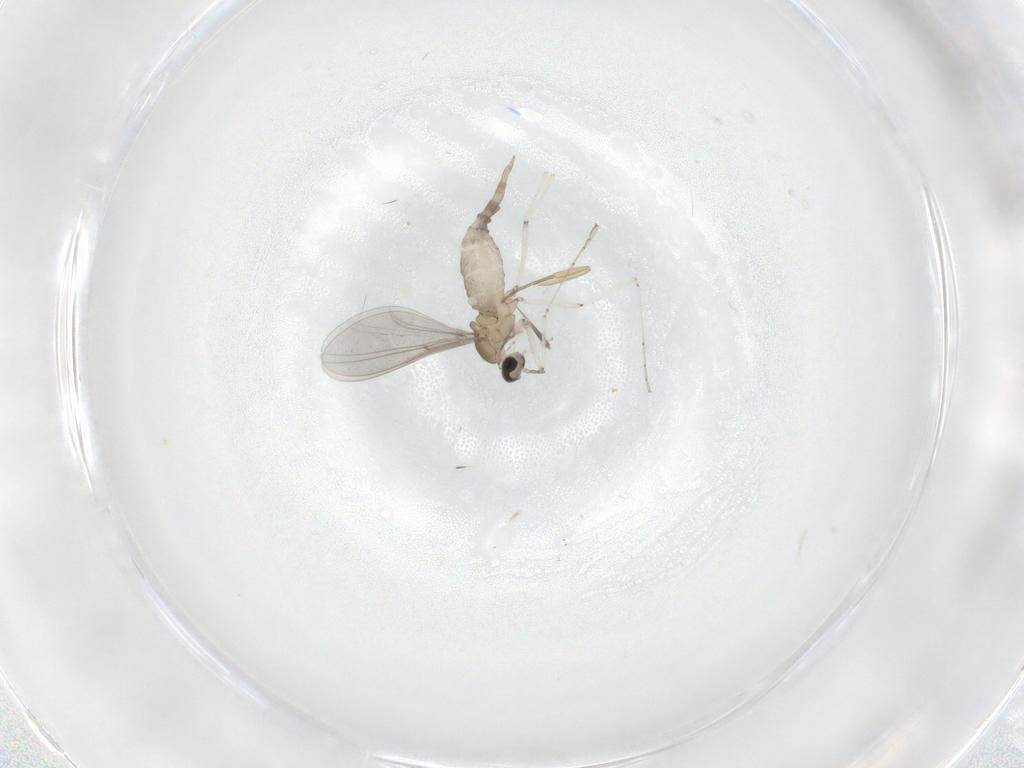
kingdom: Animalia
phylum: Arthropoda
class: Insecta
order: Diptera
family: Cecidomyiidae
